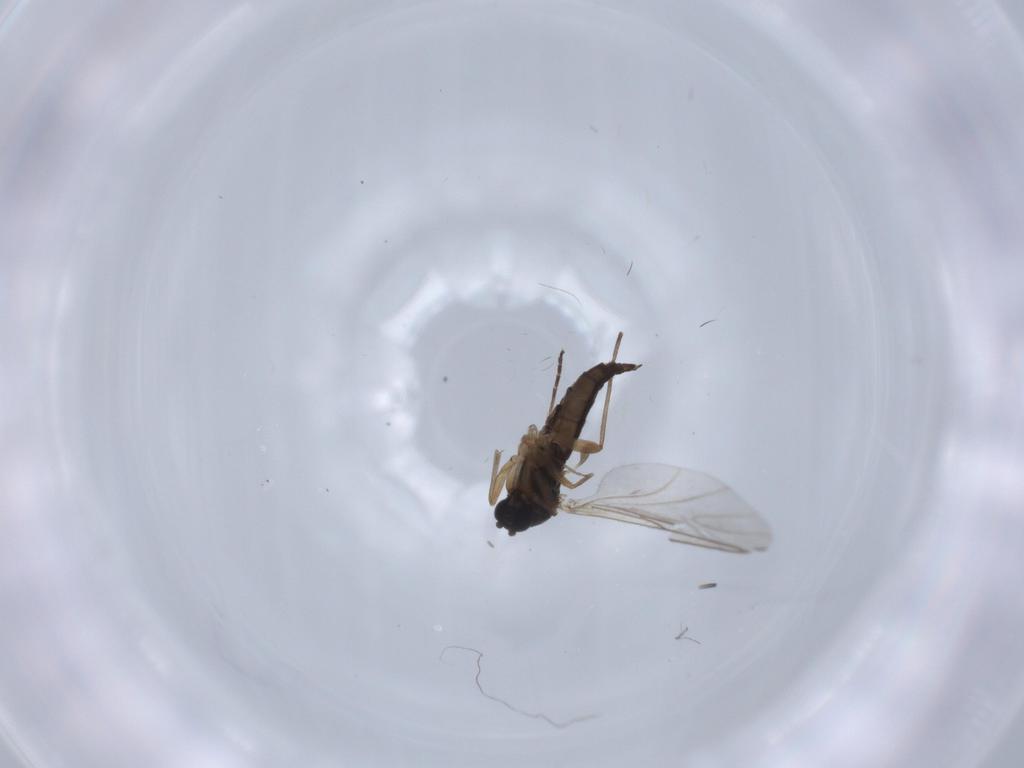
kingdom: Animalia
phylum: Arthropoda
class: Insecta
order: Diptera
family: Sciaridae
